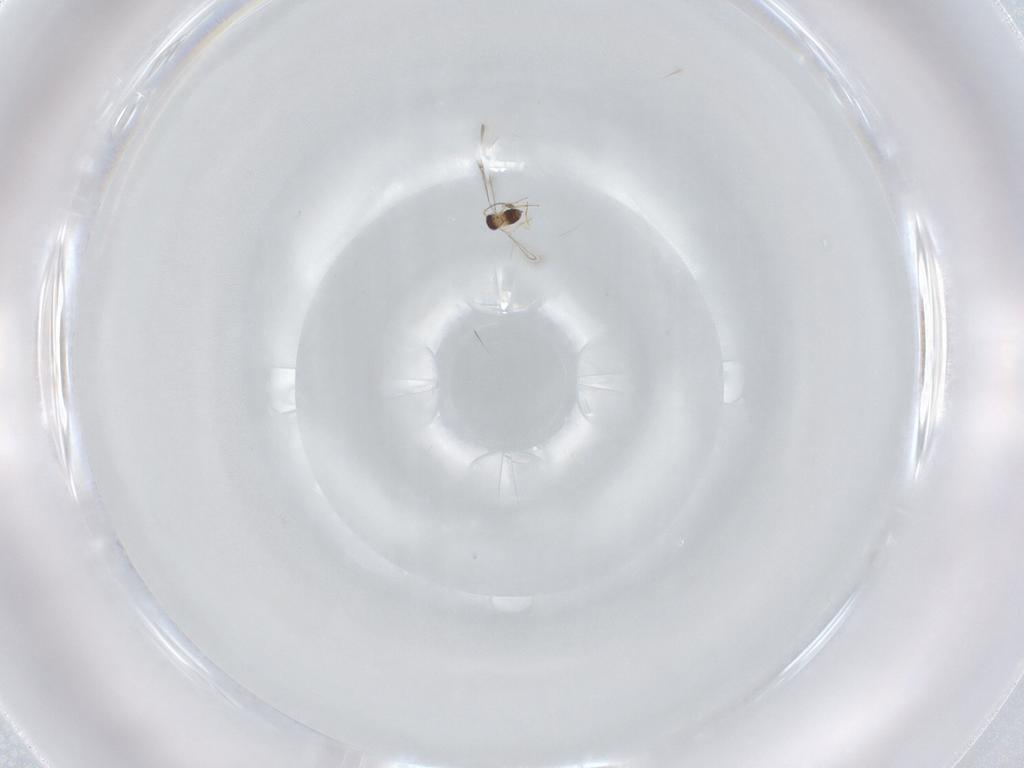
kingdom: Animalia
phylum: Arthropoda
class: Insecta
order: Hymenoptera
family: Mymaridae
